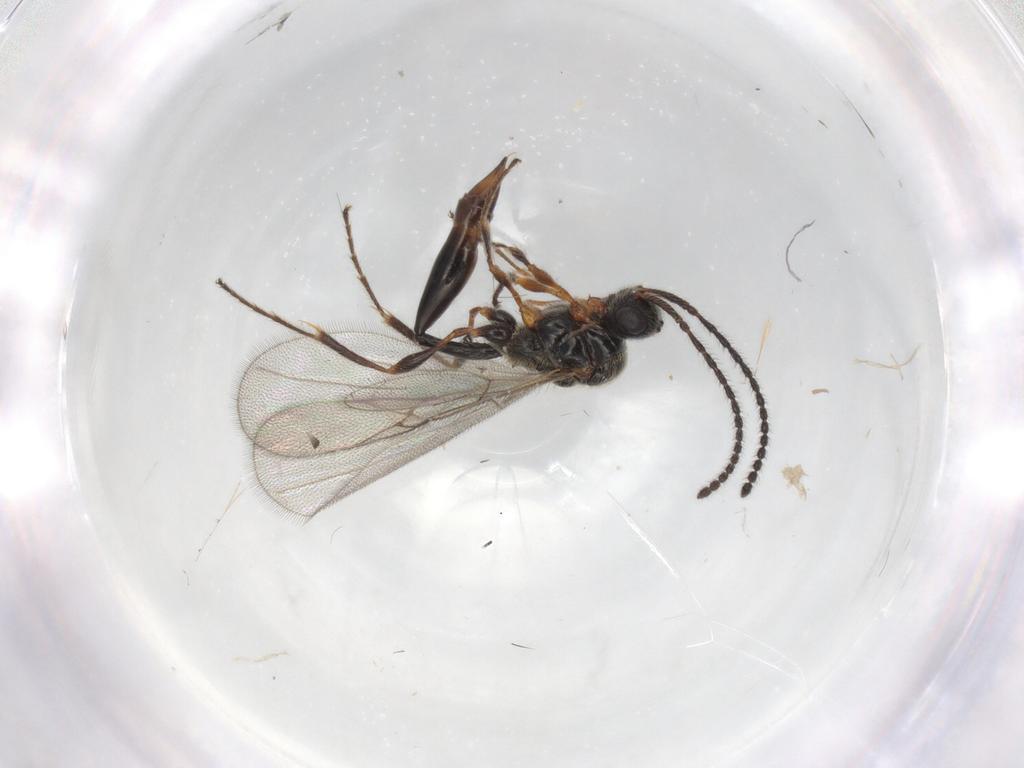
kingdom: Animalia
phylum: Arthropoda
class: Insecta
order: Hymenoptera
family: Diapriidae
